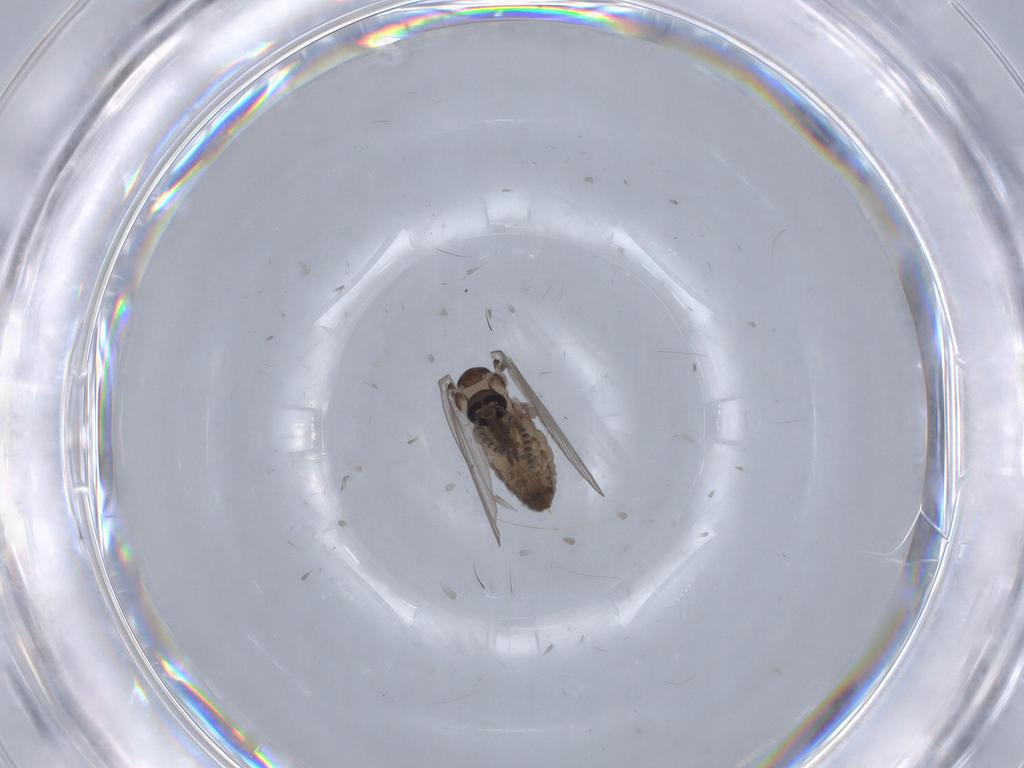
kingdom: Animalia
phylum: Arthropoda
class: Insecta
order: Diptera
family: Psychodidae
